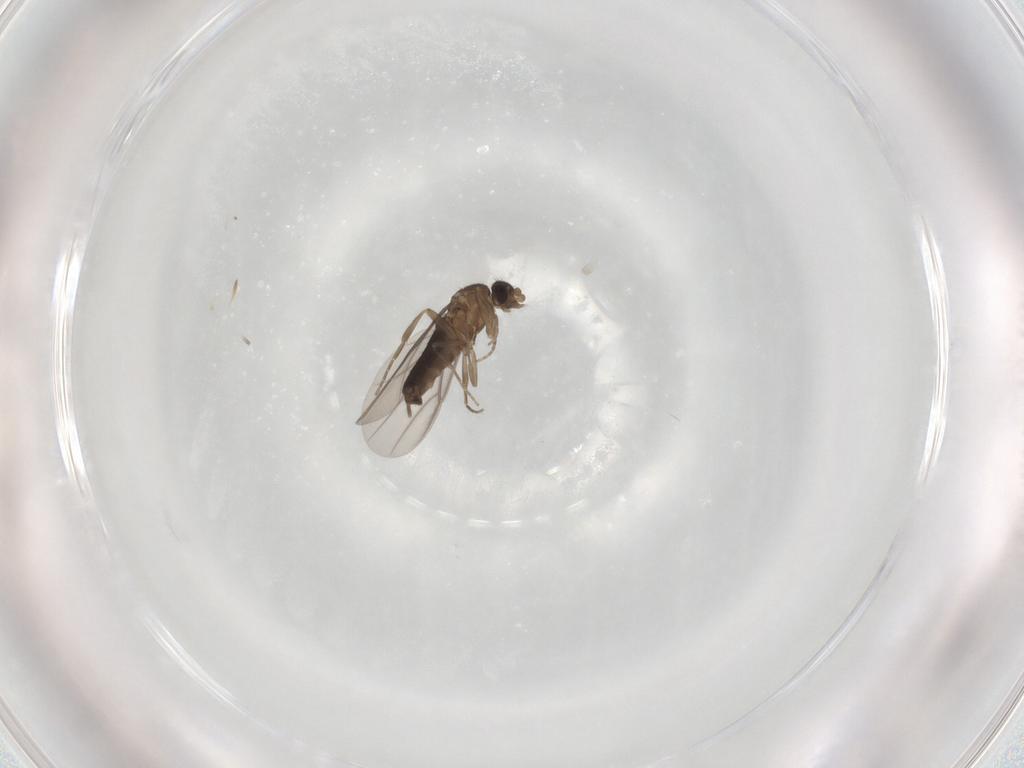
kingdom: Animalia
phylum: Arthropoda
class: Insecta
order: Diptera
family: Phoridae
